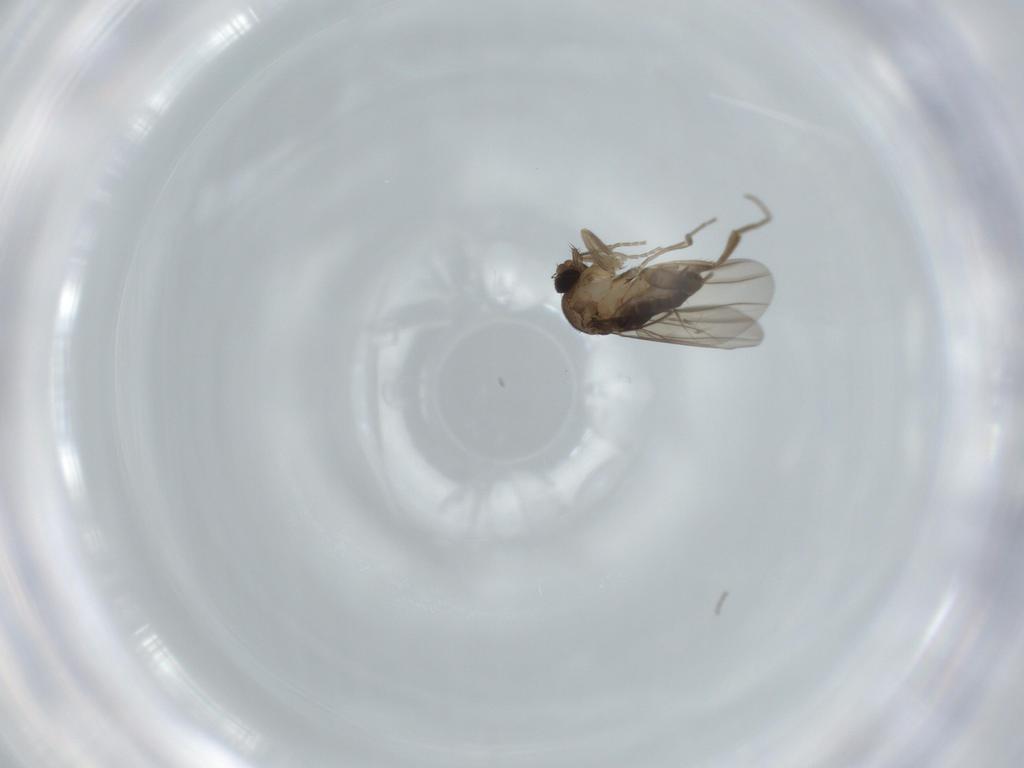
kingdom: Animalia
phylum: Arthropoda
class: Insecta
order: Diptera
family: Phoridae
